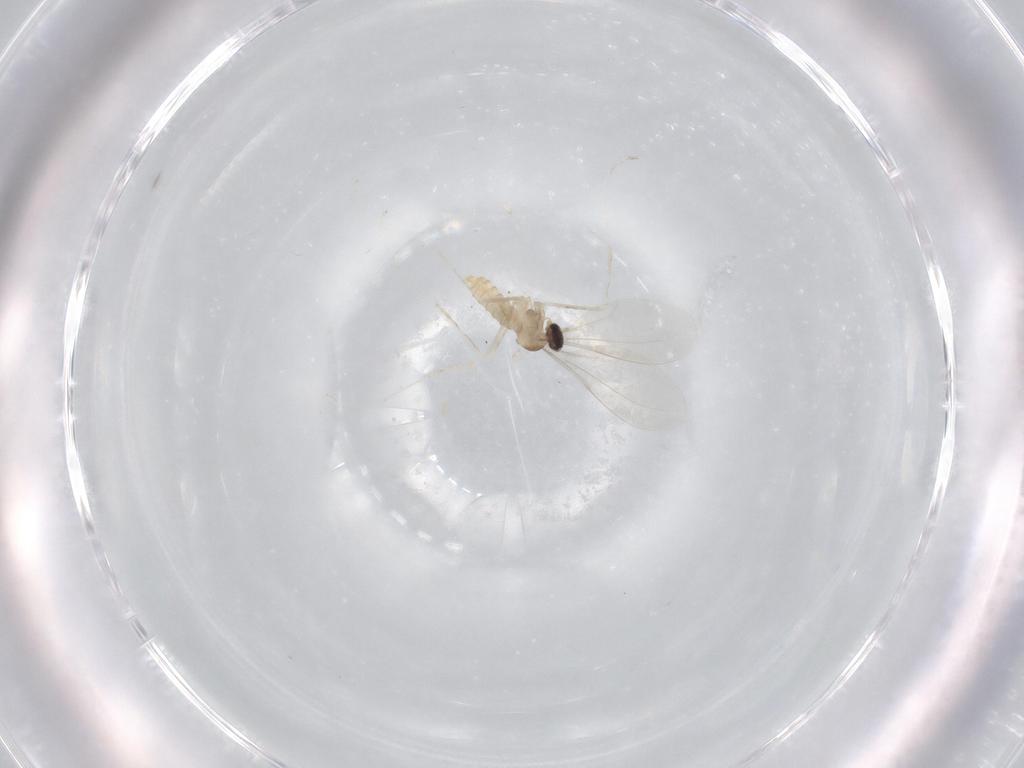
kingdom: Animalia
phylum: Arthropoda
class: Insecta
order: Diptera
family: Cecidomyiidae
